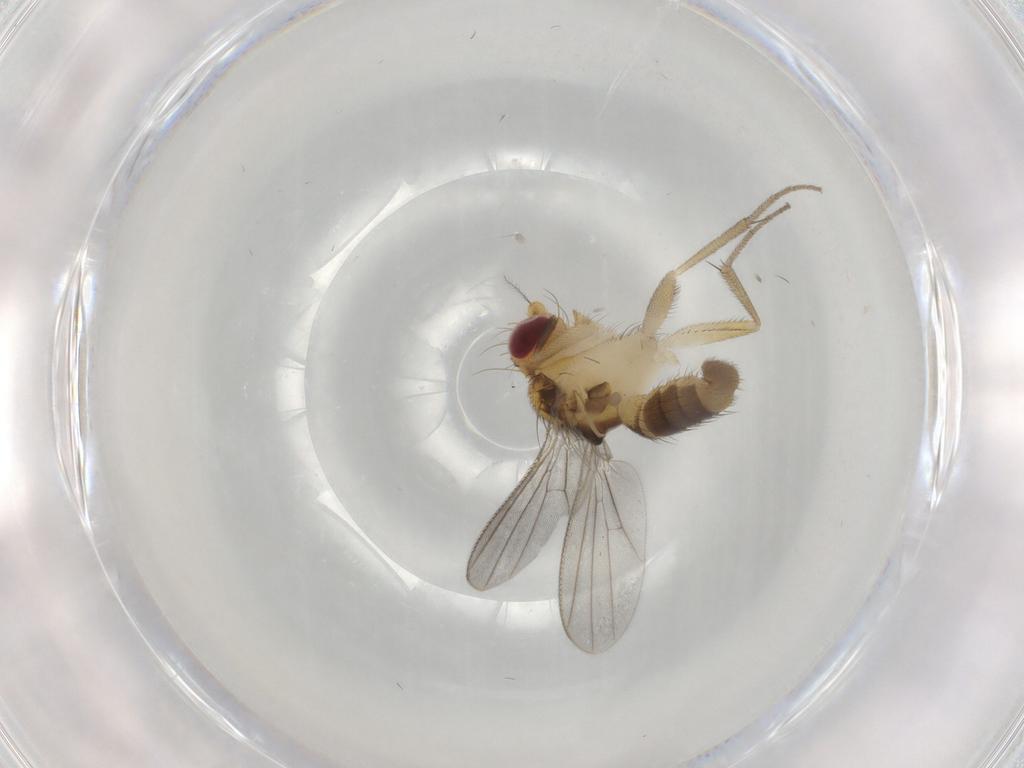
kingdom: Animalia
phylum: Arthropoda
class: Insecta
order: Diptera
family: Clusiidae
